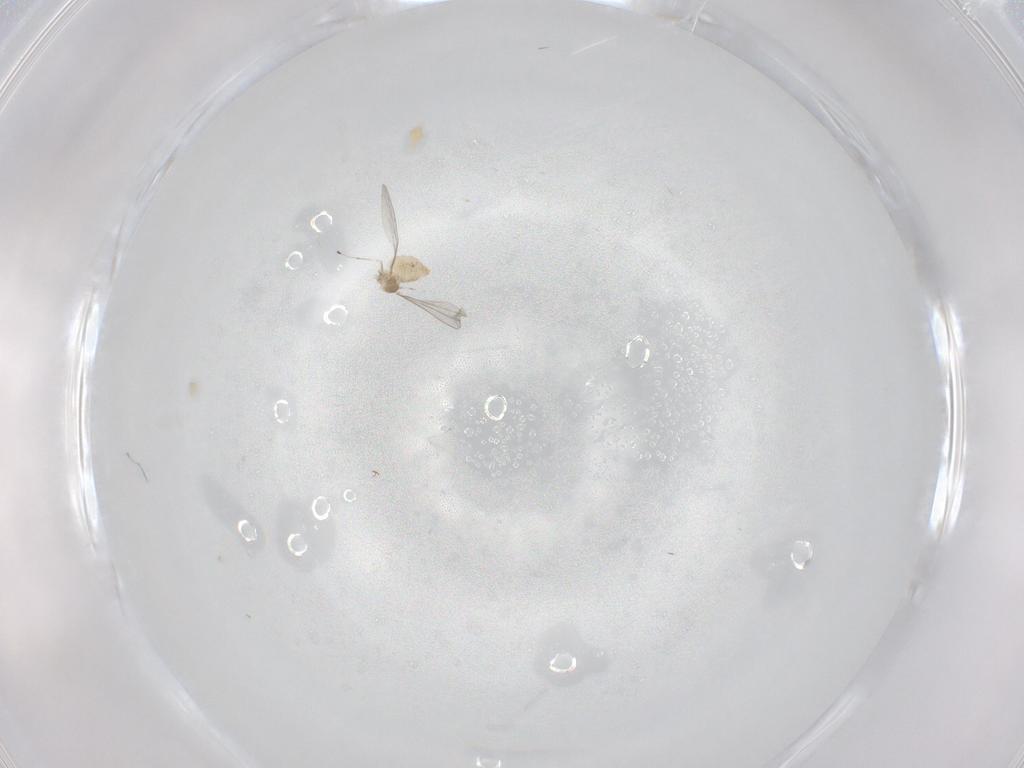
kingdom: Animalia
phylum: Arthropoda
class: Insecta
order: Diptera
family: Cecidomyiidae
